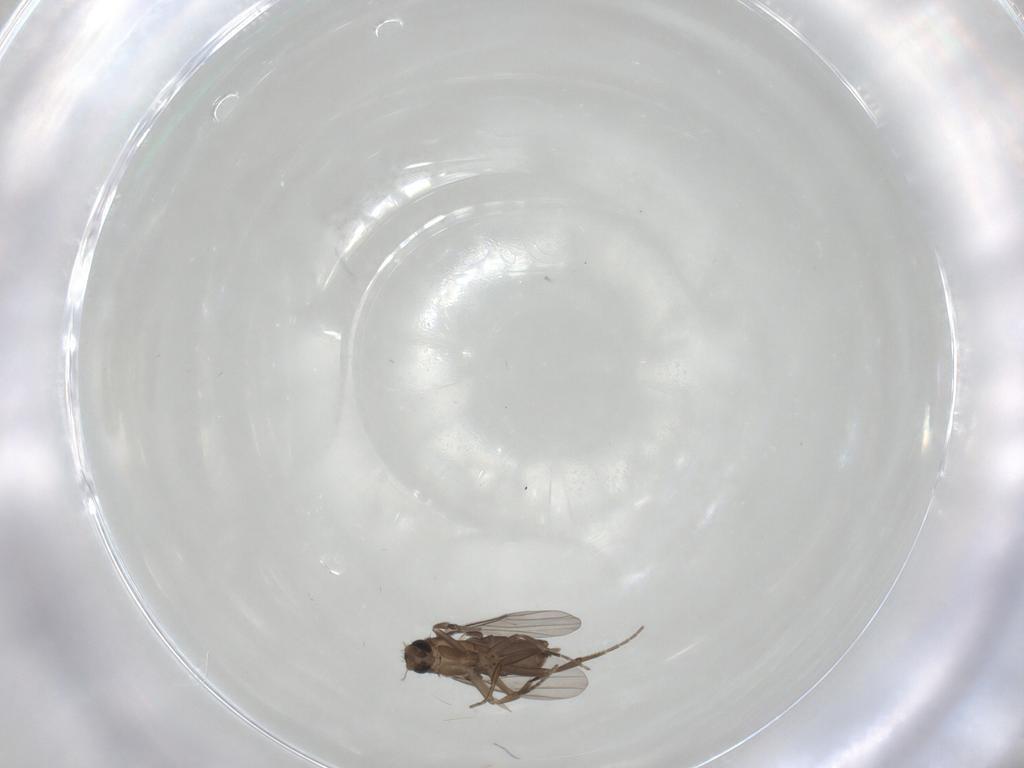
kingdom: Animalia
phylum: Arthropoda
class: Insecta
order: Diptera
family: Phoridae
